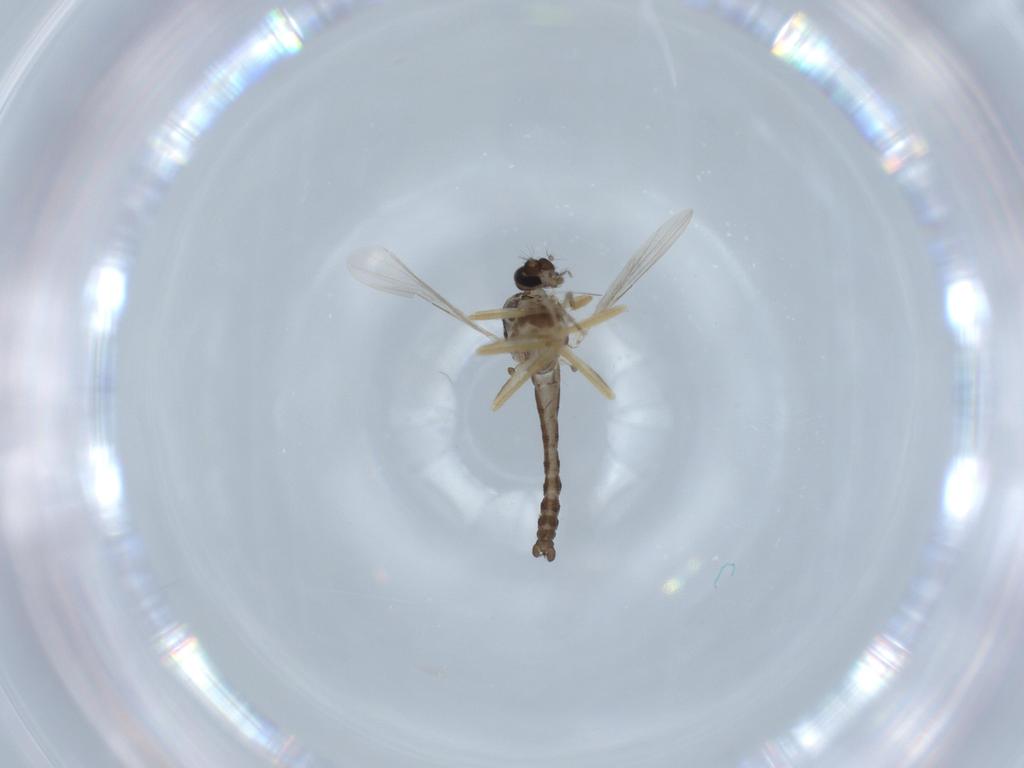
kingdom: Animalia
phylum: Arthropoda
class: Insecta
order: Diptera
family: Ceratopogonidae
